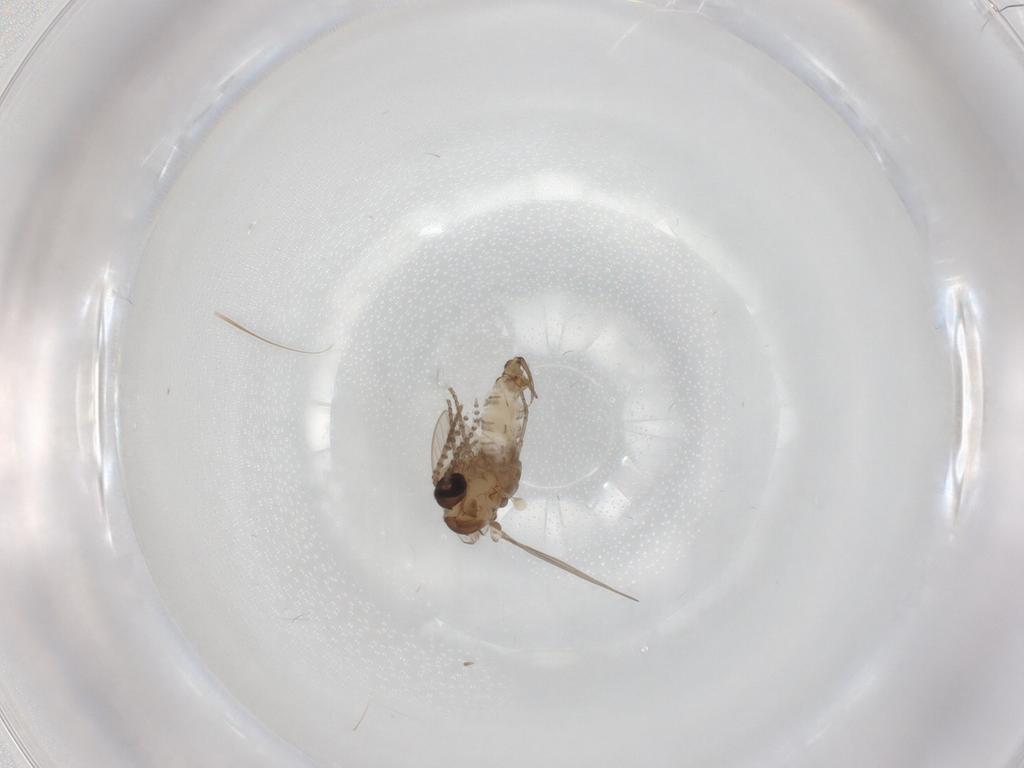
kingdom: Animalia
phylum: Arthropoda
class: Insecta
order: Diptera
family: Psychodidae
